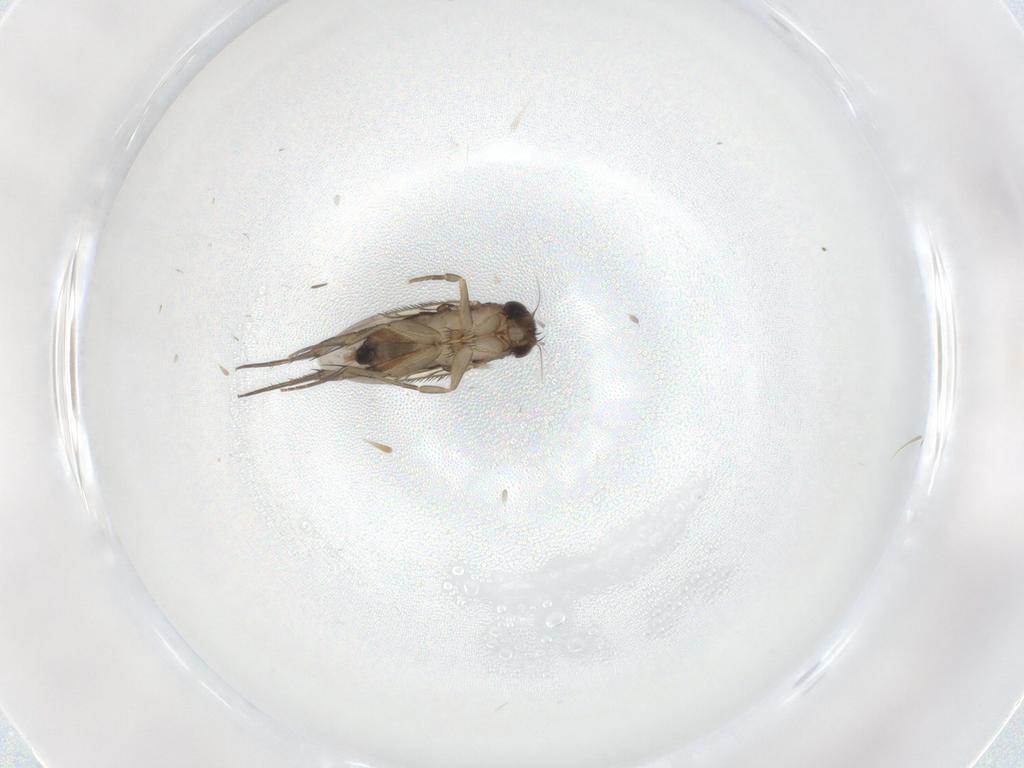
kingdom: Animalia
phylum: Arthropoda
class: Insecta
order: Diptera
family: Phoridae
